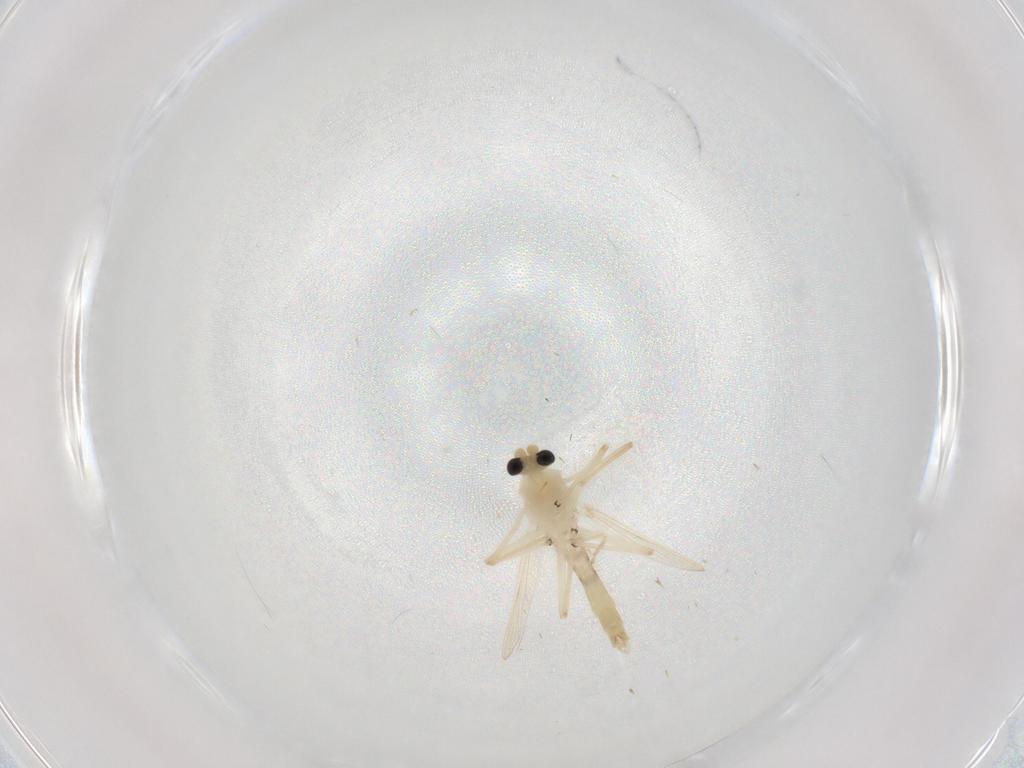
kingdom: Animalia
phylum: Arthropoda
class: Insecta
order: Diptera
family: Chironomidae
